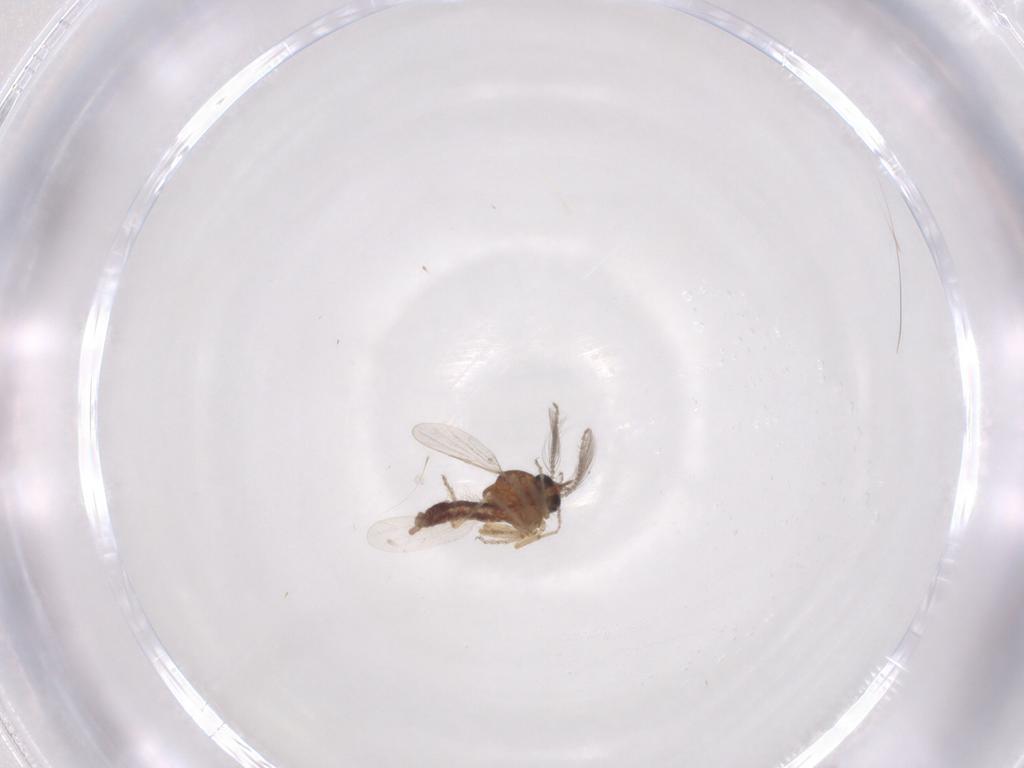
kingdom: Animalia
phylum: Arthropoda
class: Insecta
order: Diptera
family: Ceratopogonidae
